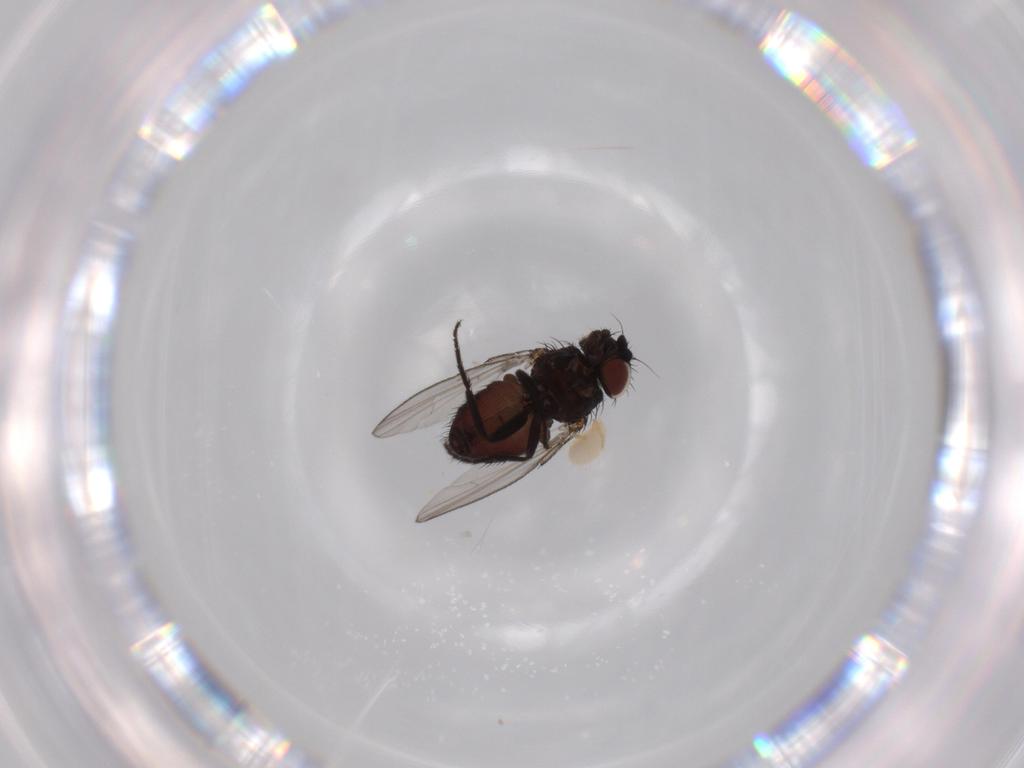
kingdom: Animalia
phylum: Arthropoda
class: Insecta
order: Diptera
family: Milichiidae
